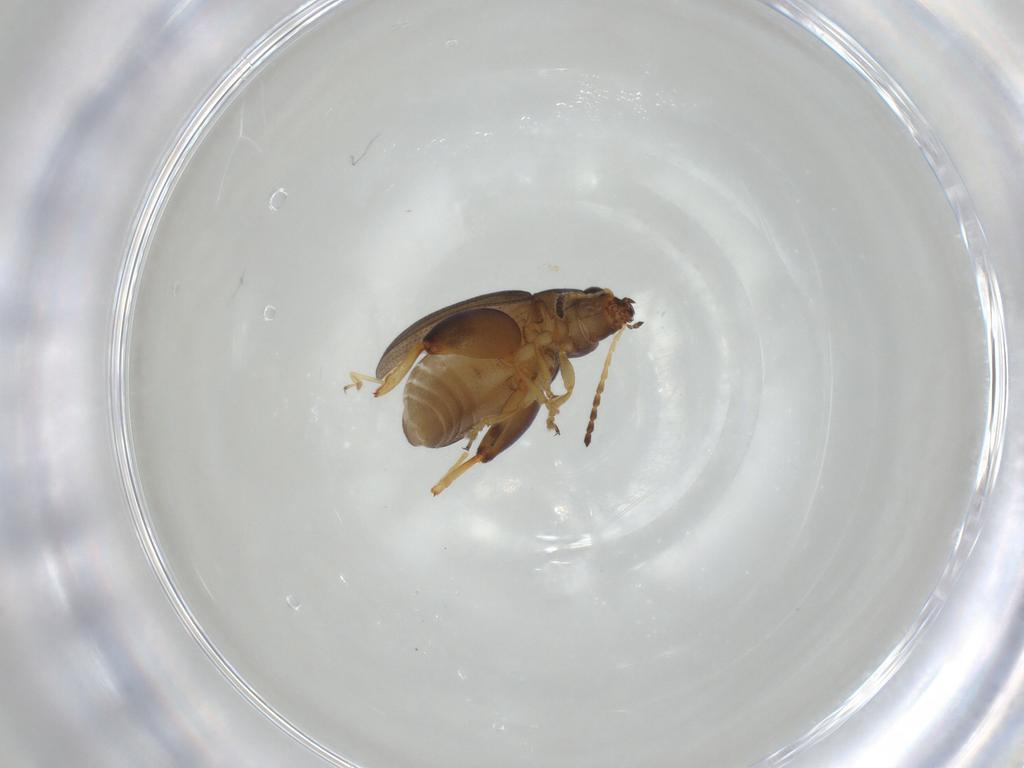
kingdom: Animalia
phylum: Arthropoda
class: Insecta
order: Coleoptera
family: Chrysomelidae
